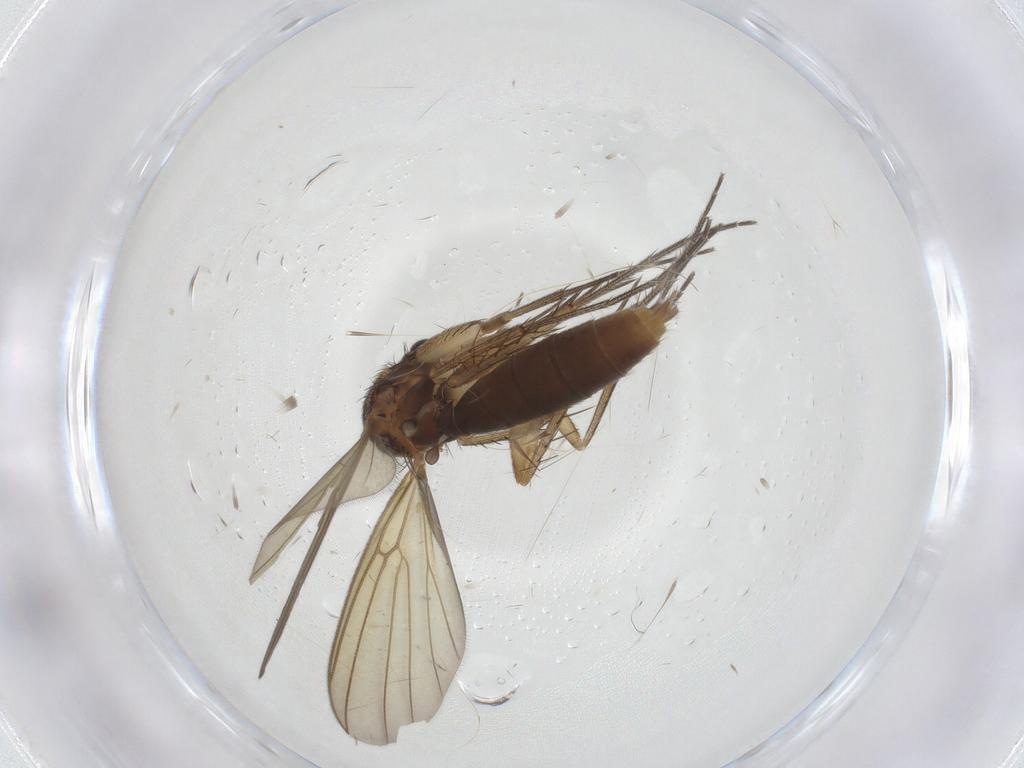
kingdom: Animalia
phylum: Arthropoda
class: Insecta
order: Diptera
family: Mycetophilidae
